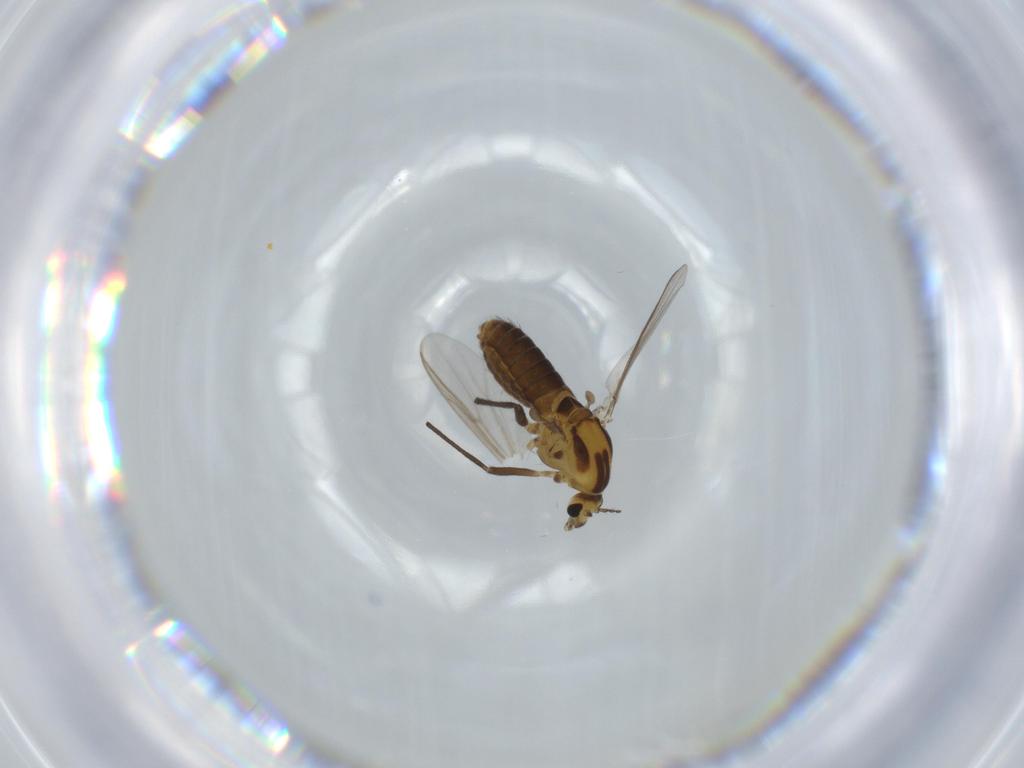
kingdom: Animalia
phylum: Arthropoda
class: Insecta
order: Diptera
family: Chironomidae
